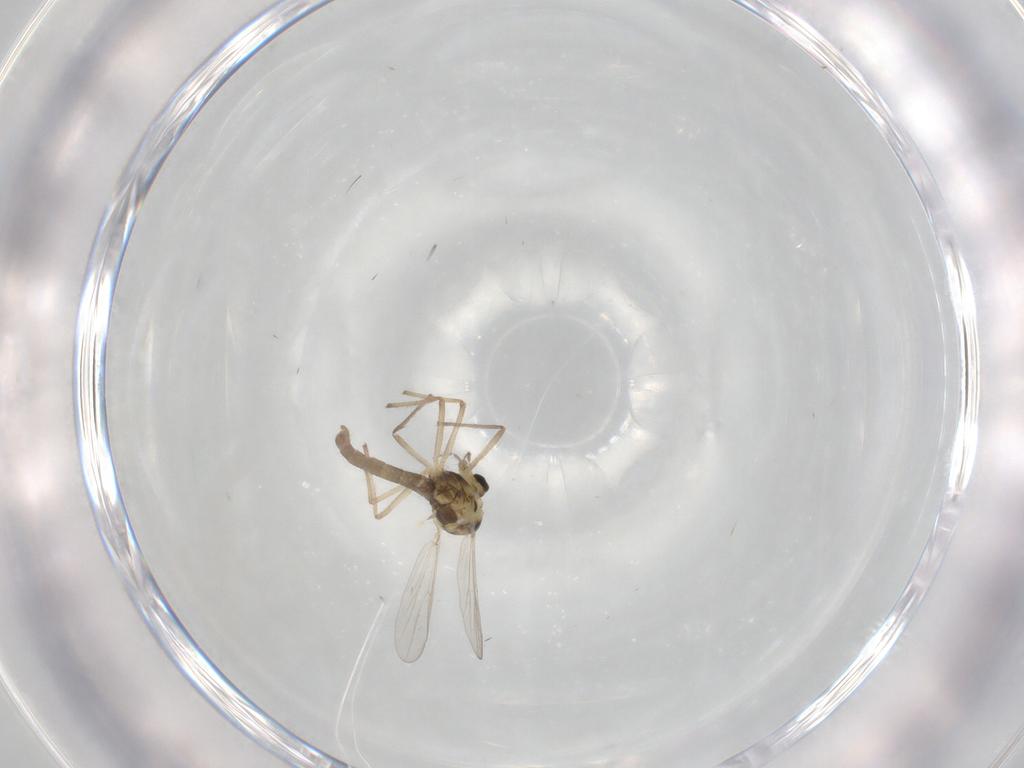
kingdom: Animalia
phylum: Arthropoda
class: Insecta
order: Diptera
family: Chironomidae
